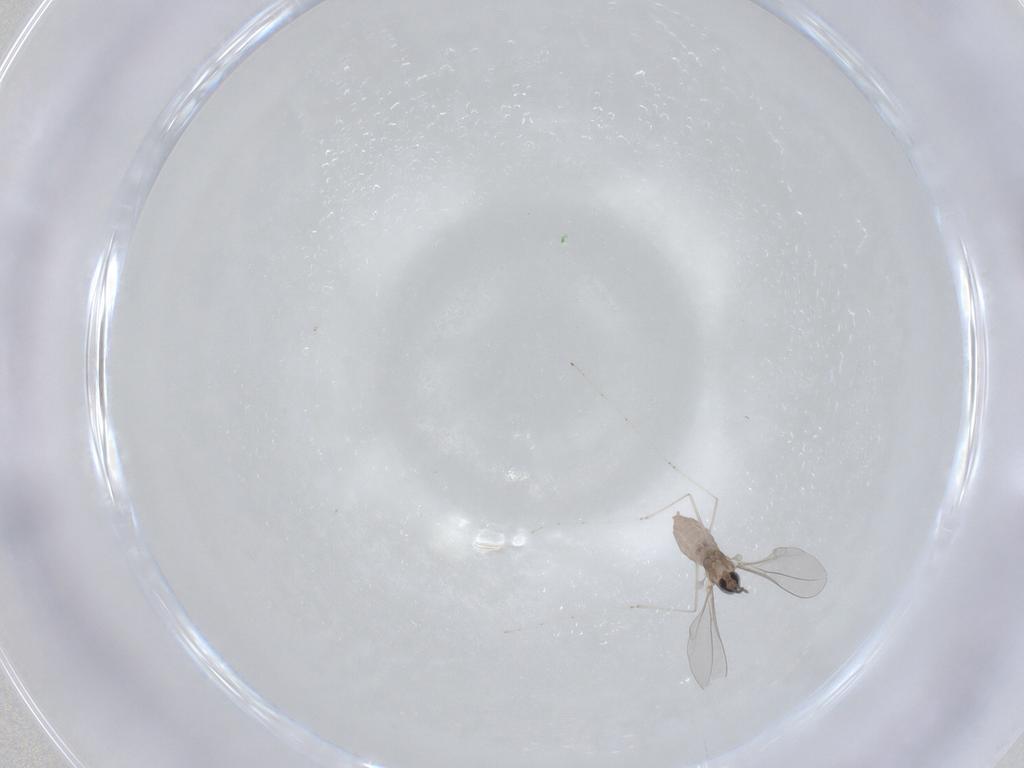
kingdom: Animalia
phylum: Arthropoda
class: Insecta
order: Diptera
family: Cecidomyiidae
